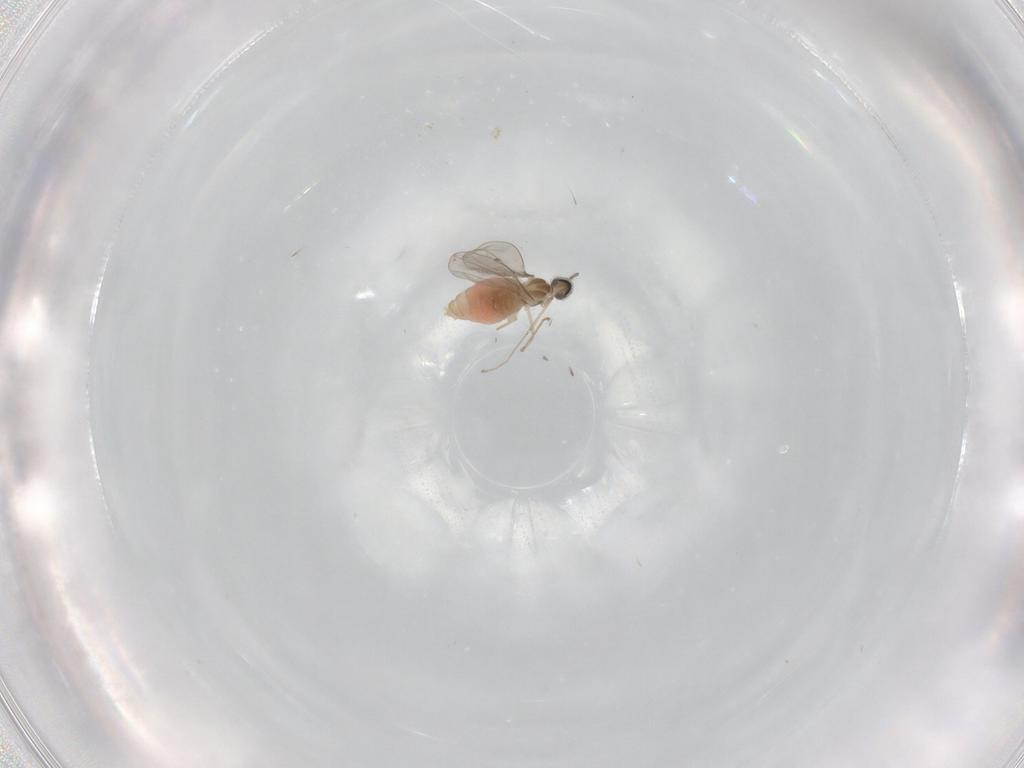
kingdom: Animalia
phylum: Arthropoda
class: Insecta
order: Diptera
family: Cecidomyiidae
